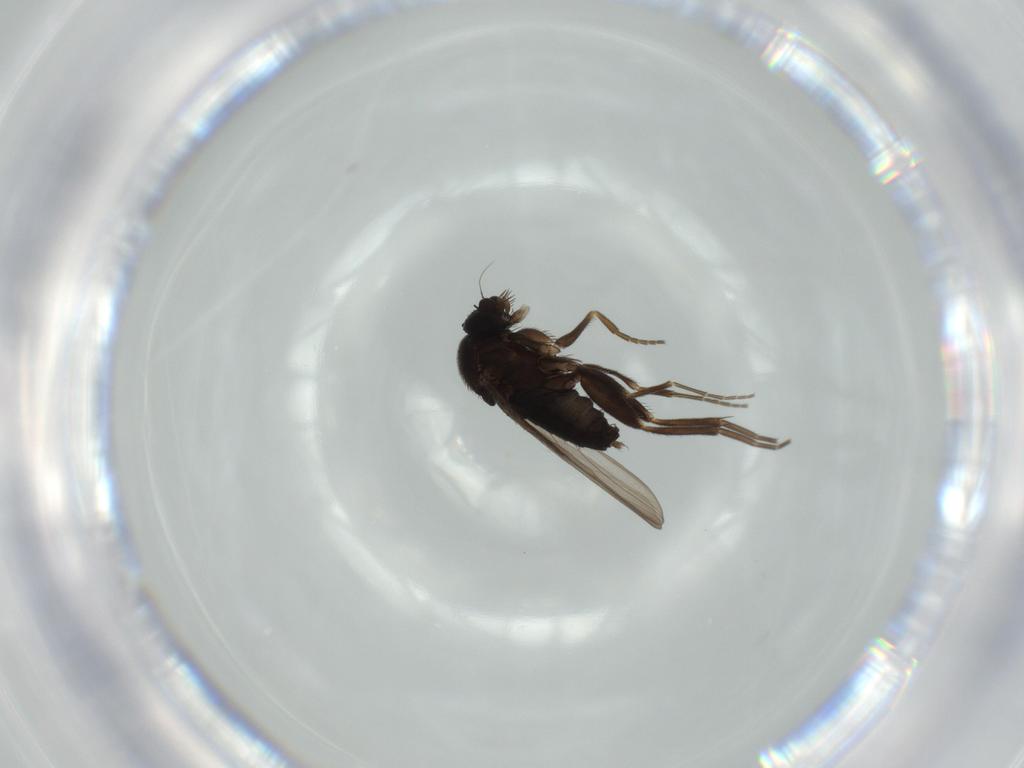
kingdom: Animalia
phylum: Arthropoda
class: Insecta
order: Diptera
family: Phoridae
